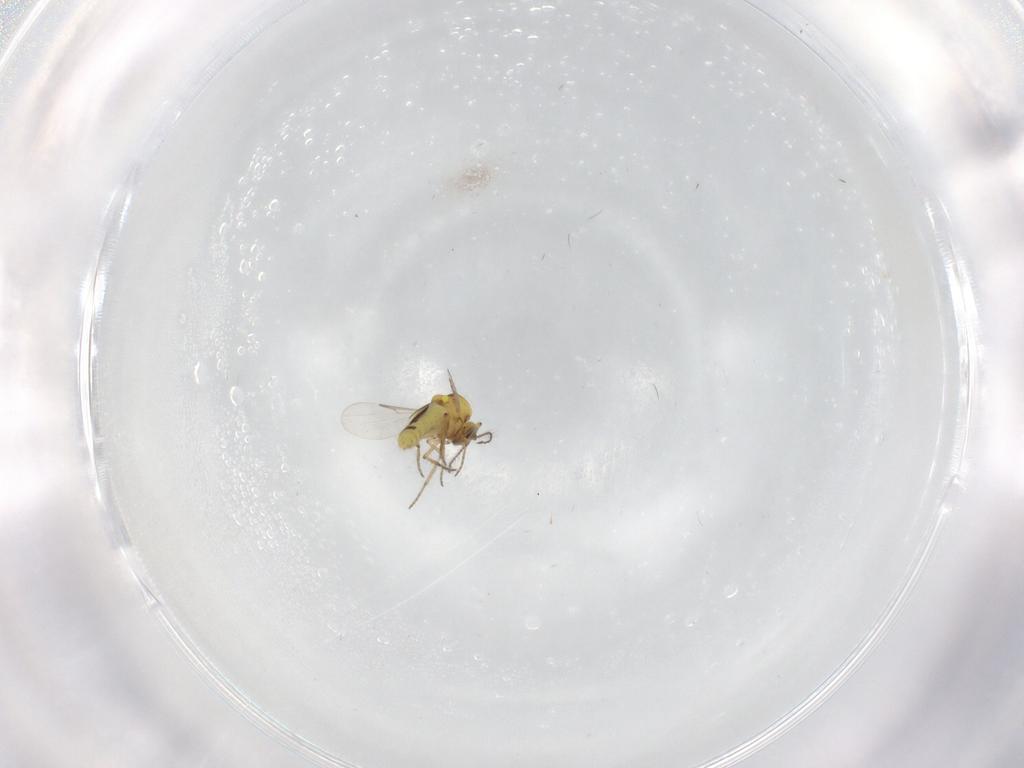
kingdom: Animalia
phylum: Arthropoda
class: Insecta
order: Diptera
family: Ceratopogonidae
